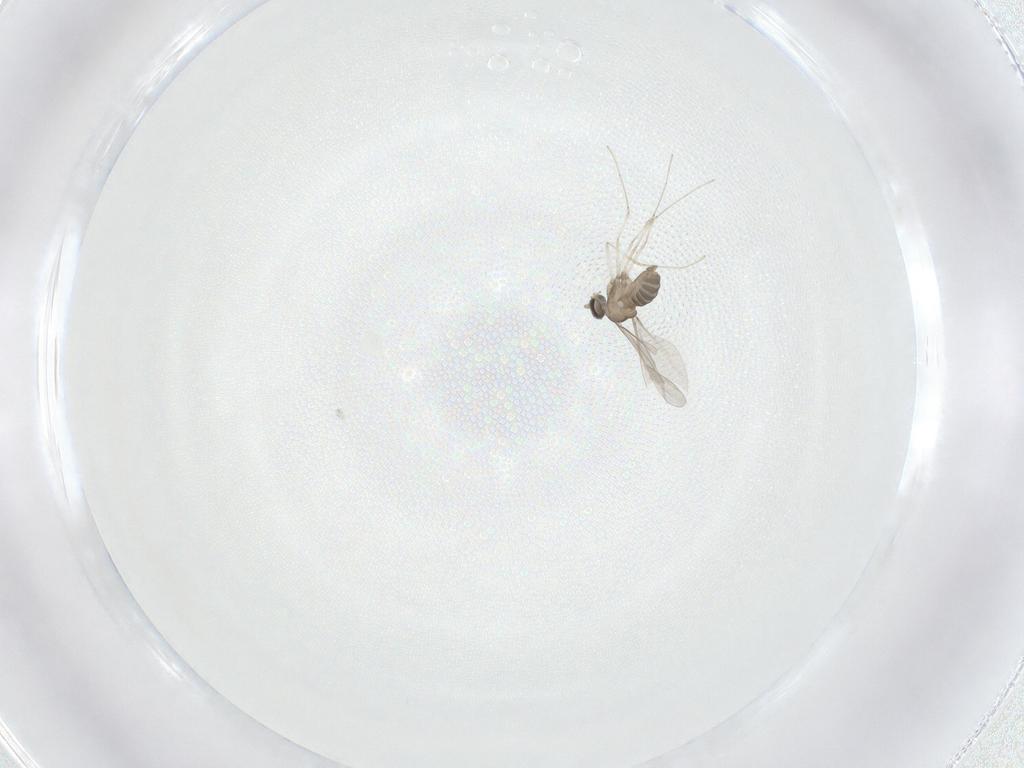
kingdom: Animalia
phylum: Arthropoda
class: Insecta
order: Diptera
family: Cecidomyiidae
